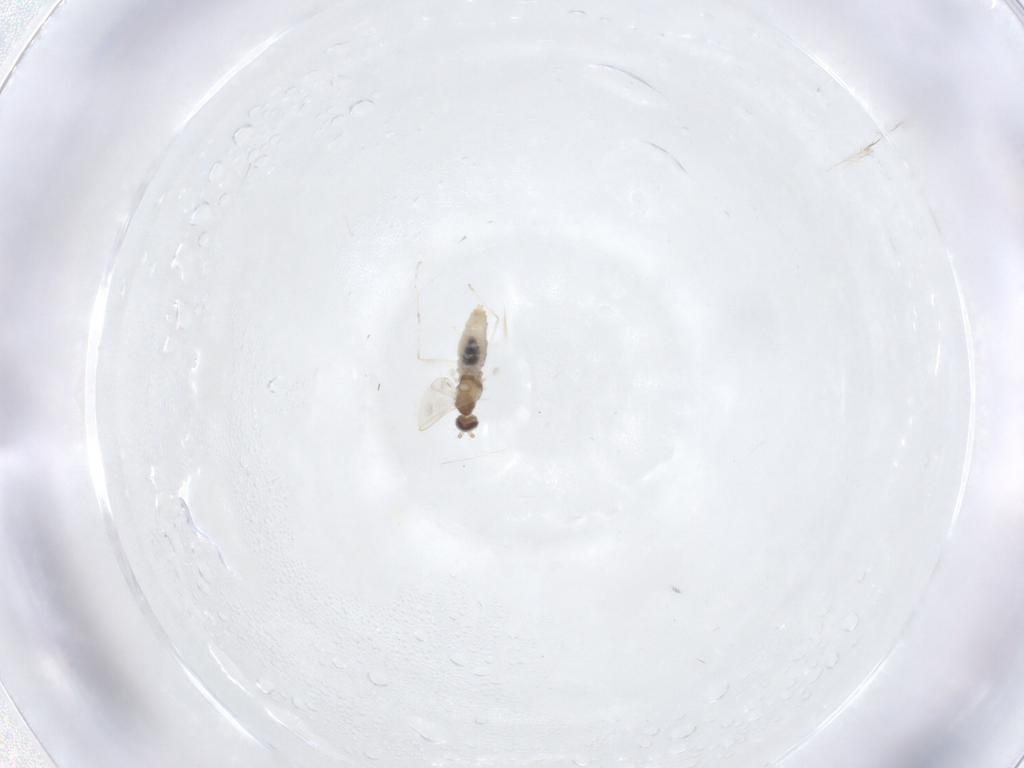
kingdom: Animalia
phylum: Arthropoda
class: Insecta
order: Diptera
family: Cecidomyiidae
